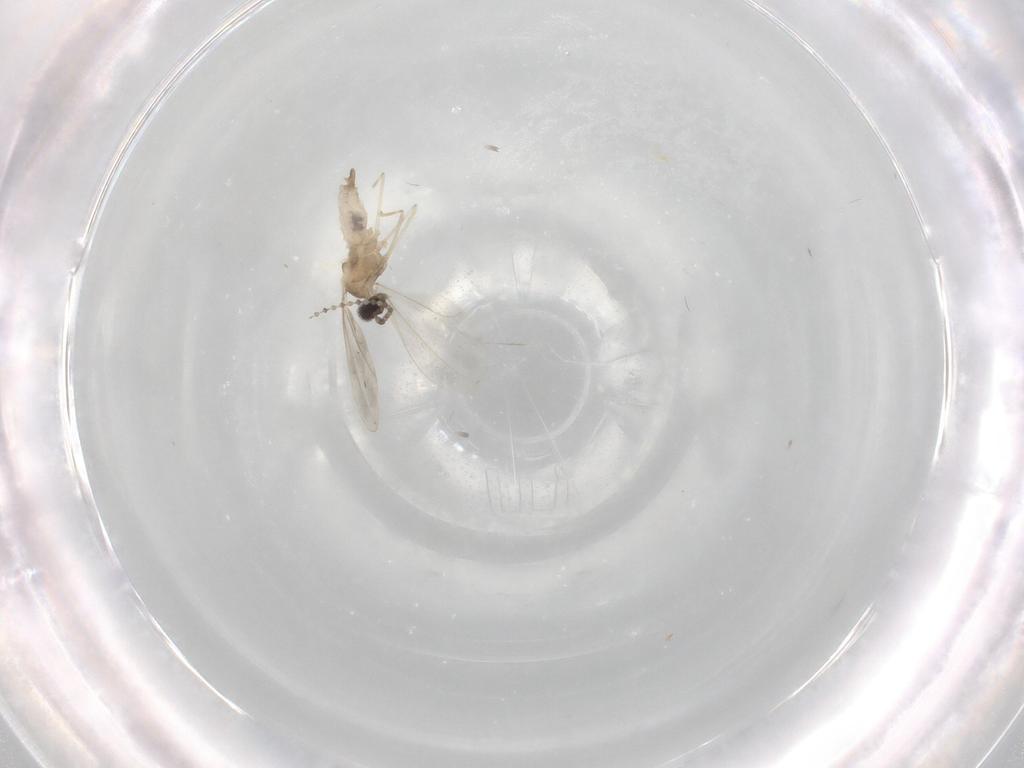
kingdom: Animalia
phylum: Arthropoda
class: Insecta
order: Diptera
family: Cecidomyiidae
